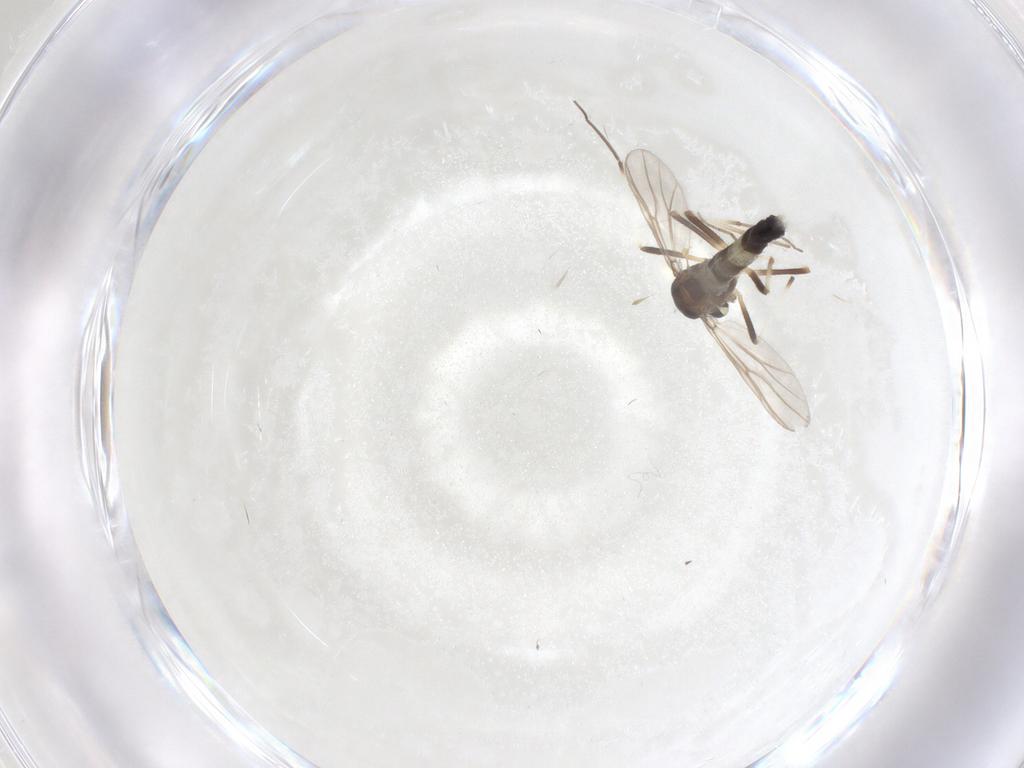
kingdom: Animalia
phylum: Arthropoda
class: Insecta
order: Diptera
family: Chironomidae
